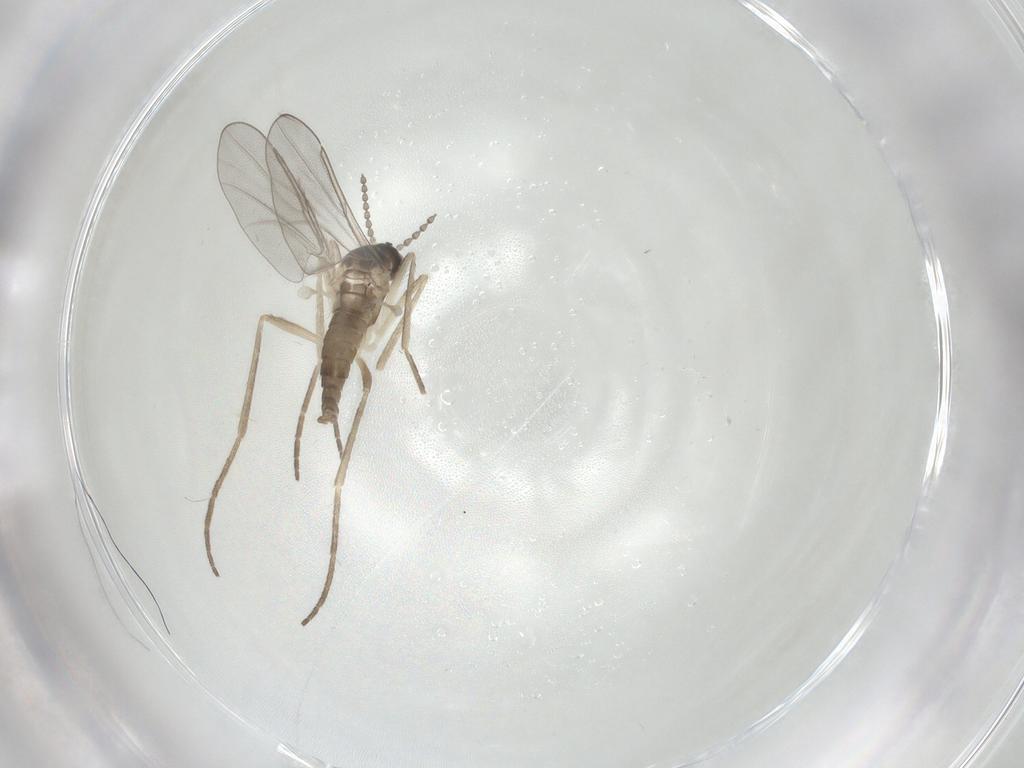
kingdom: Animalia
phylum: Arthropoda
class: Insecta
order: Diptera
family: Cecidomyiidae
